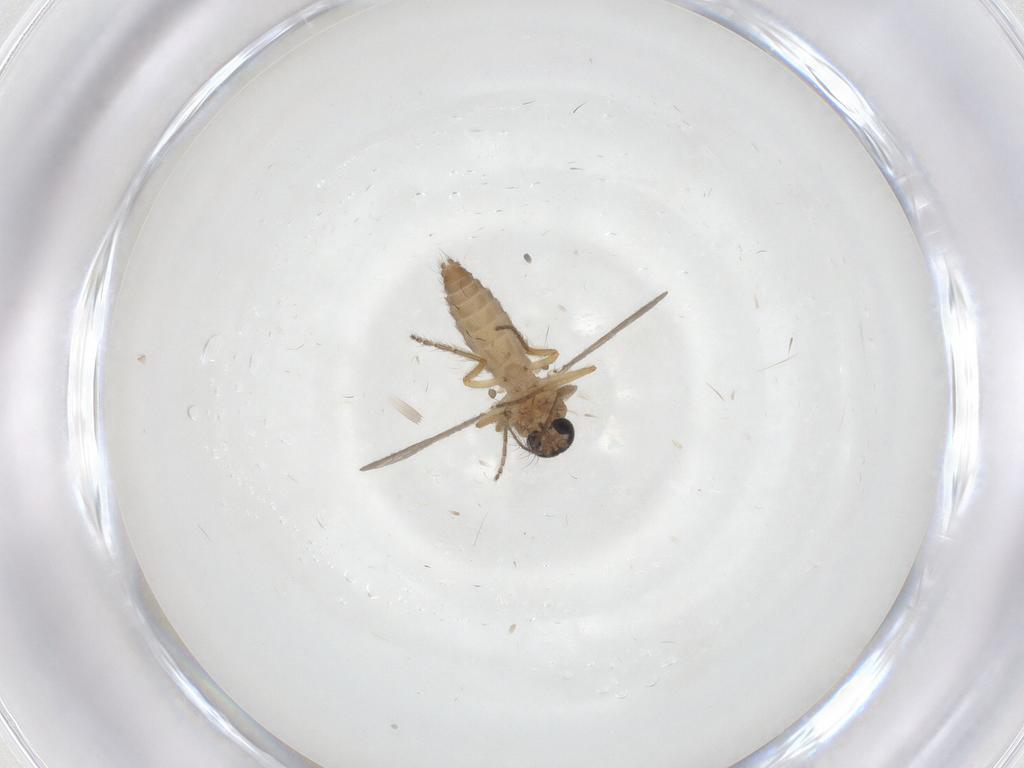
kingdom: Animalia
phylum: Arthropoda
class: Insecta
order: Diptera
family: Ceratopogonidae
